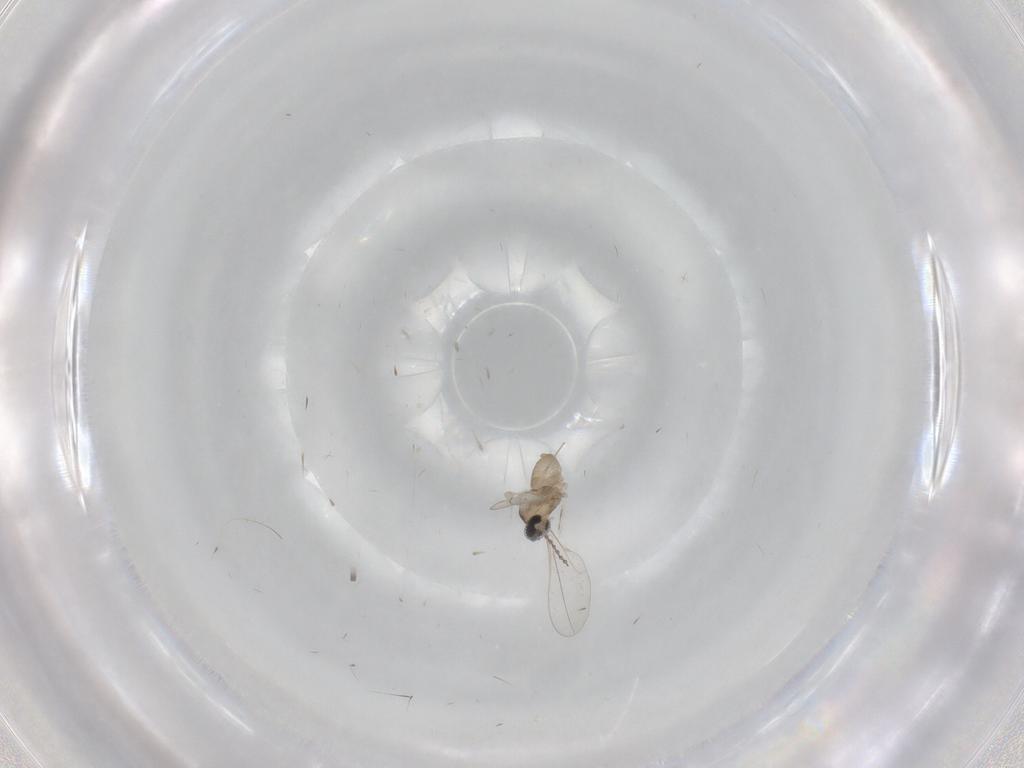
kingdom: Animalia
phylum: Arthropoda
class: Insecta
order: Diptera
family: Cecidomyiidae
